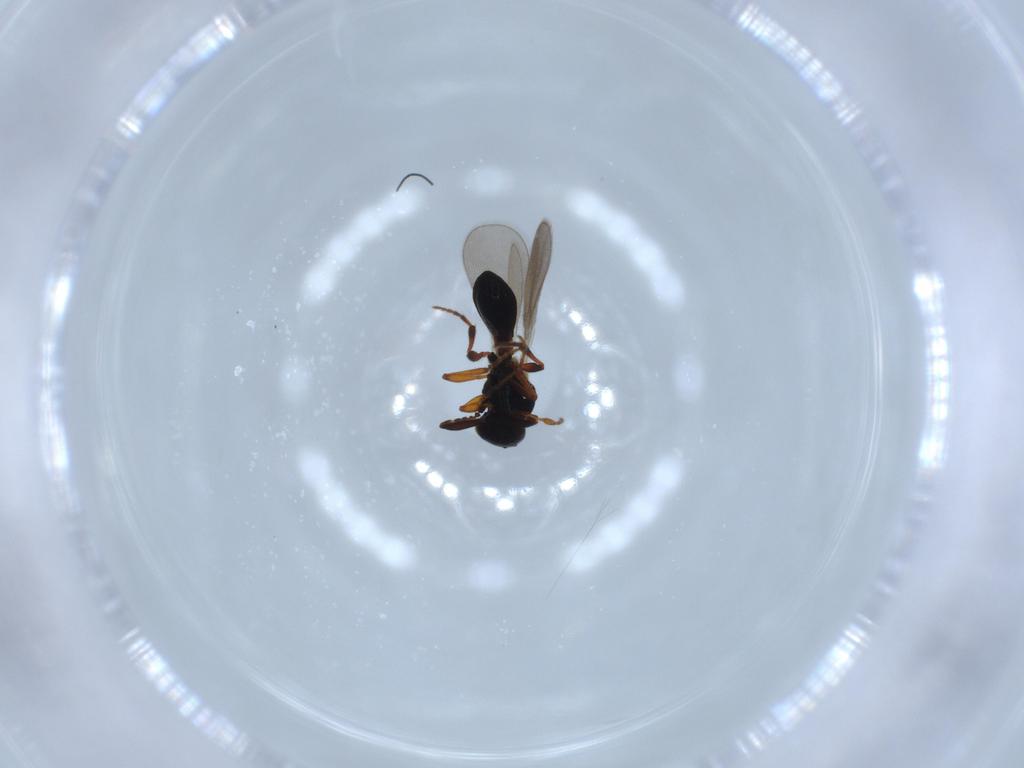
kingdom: Animalia
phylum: Arthropoda
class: Insecta
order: Hymenoptera
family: Platygastridae
